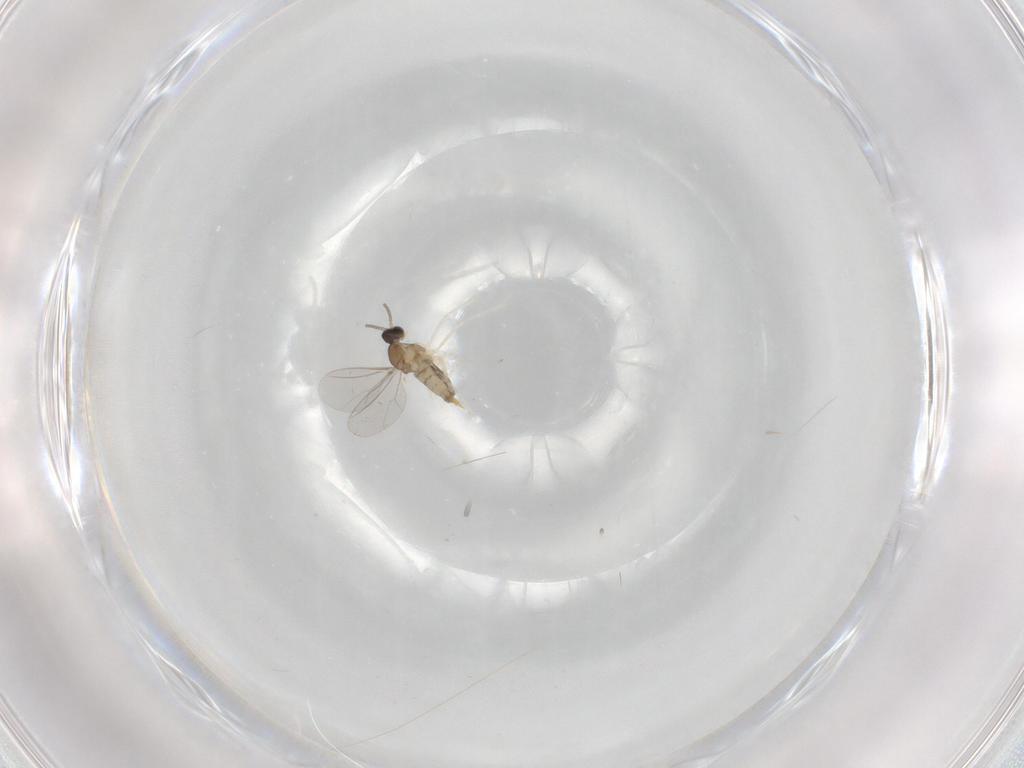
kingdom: Animalia
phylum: Arthropoda
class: Insecta
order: Diptera
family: Cecidomyiidae
